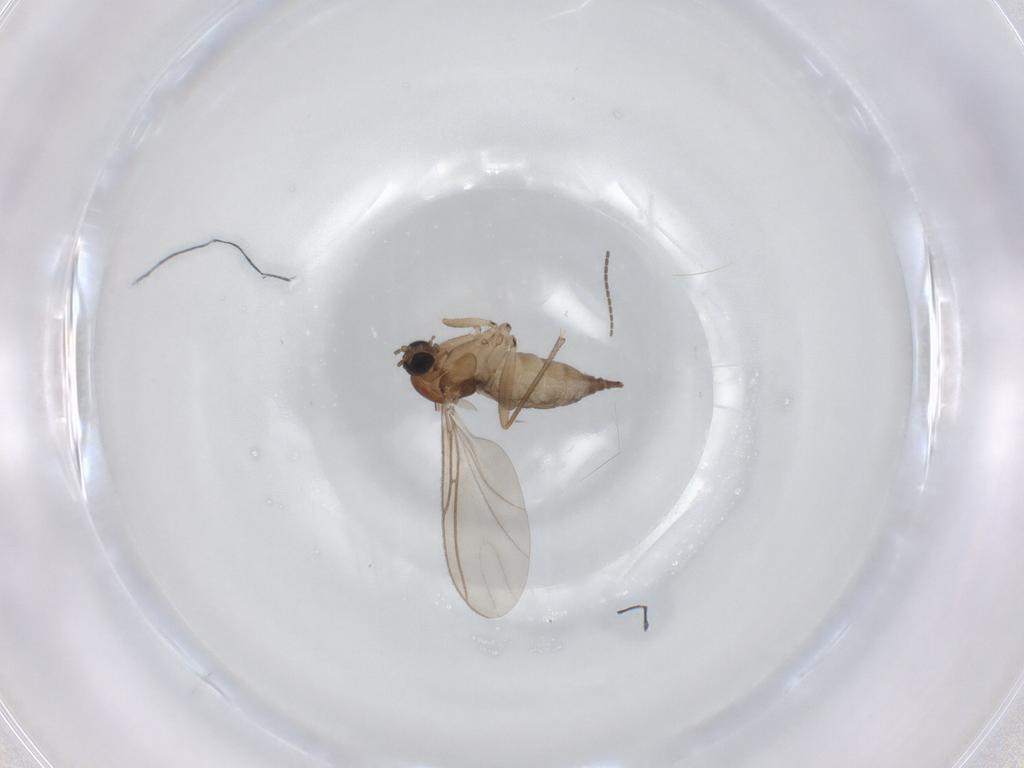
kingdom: Animalia
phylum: Arthropoda
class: Insecta
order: Diptera
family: Sciaridae
